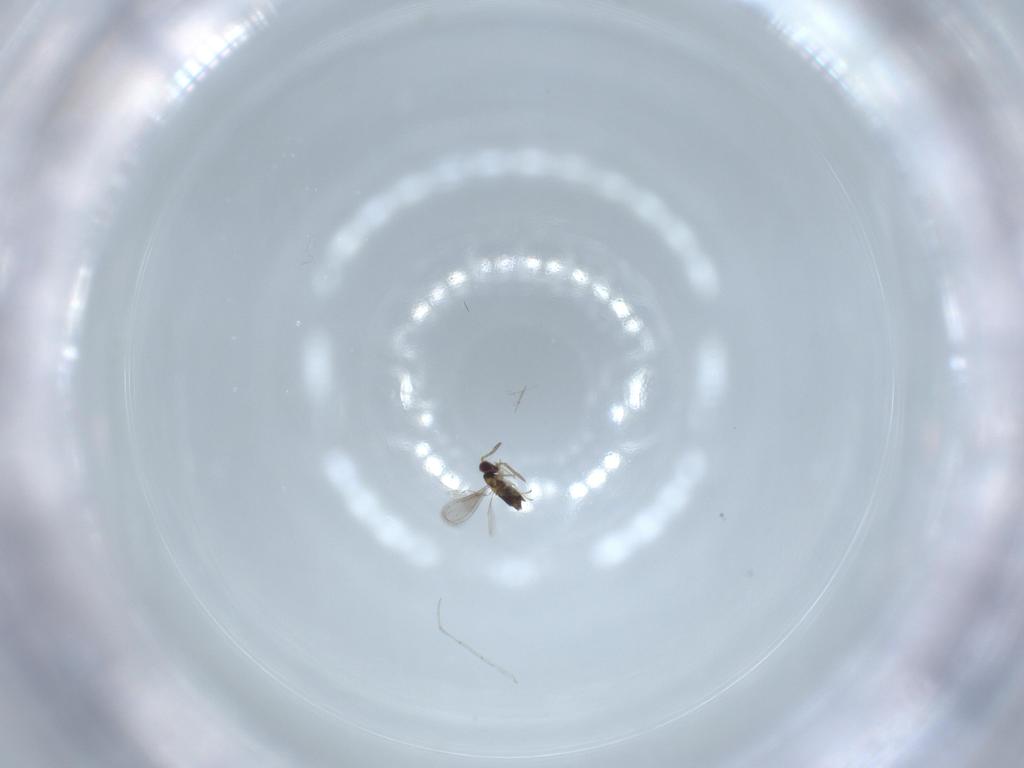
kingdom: Animalia
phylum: Arthropoda
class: Insecta
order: Hymenoptera
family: Aphelinidae
